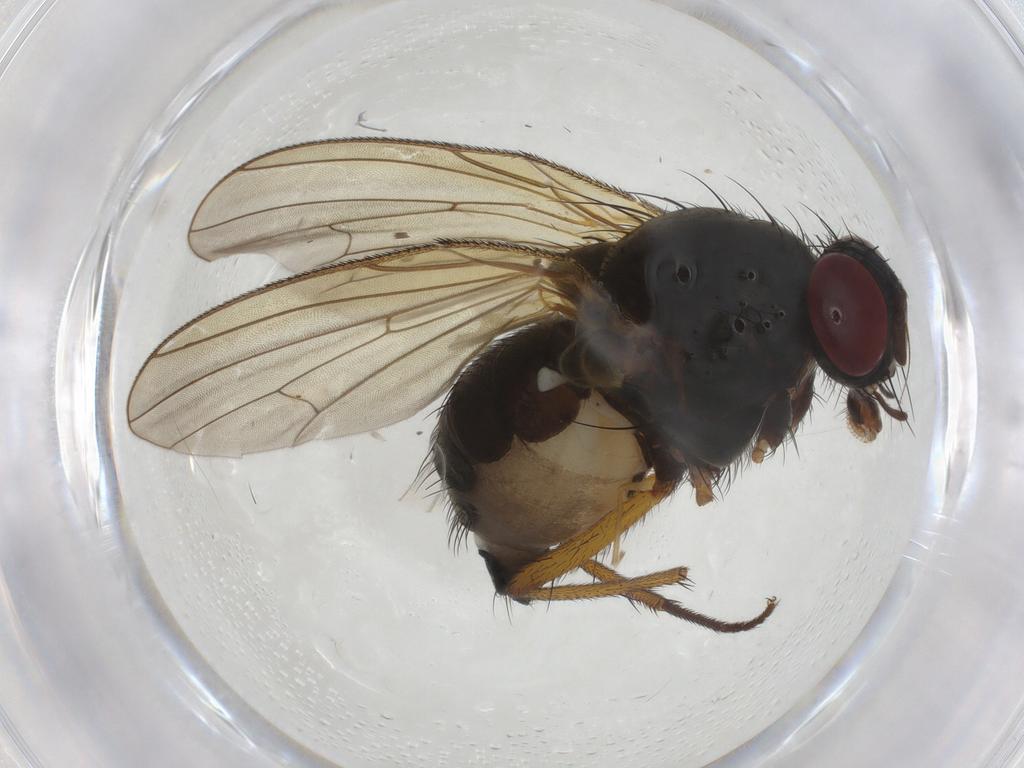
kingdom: Animalia
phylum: Arthropoda
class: Insecta
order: Diptera
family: Anthomyiidae
